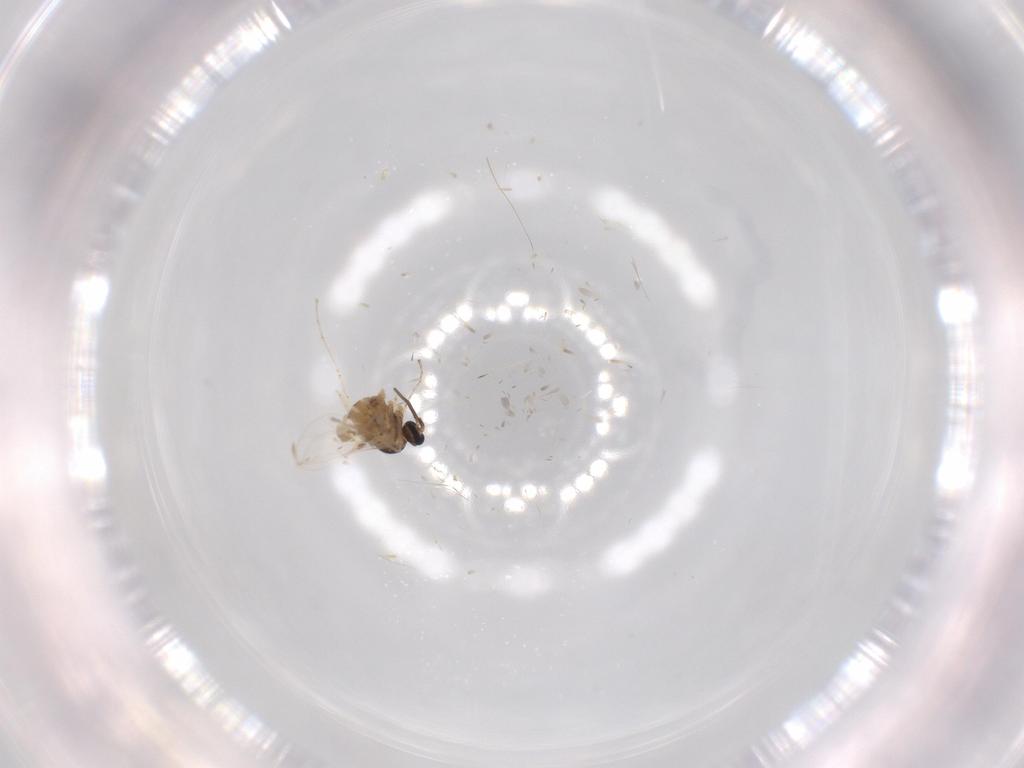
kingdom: Animalia
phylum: Arthropoda
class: Insecta
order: Diptera
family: Cecidomyiidae
